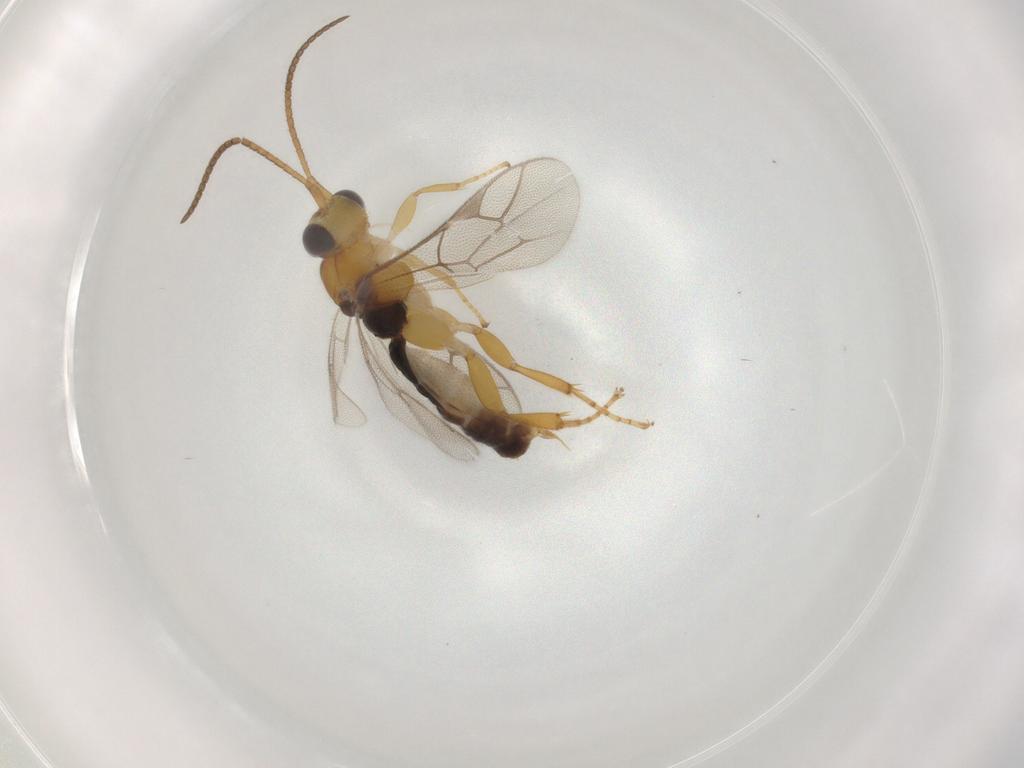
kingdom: Animalia
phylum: Arthropoda
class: Insecta
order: Hymenoptera
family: Ichneumonidae
